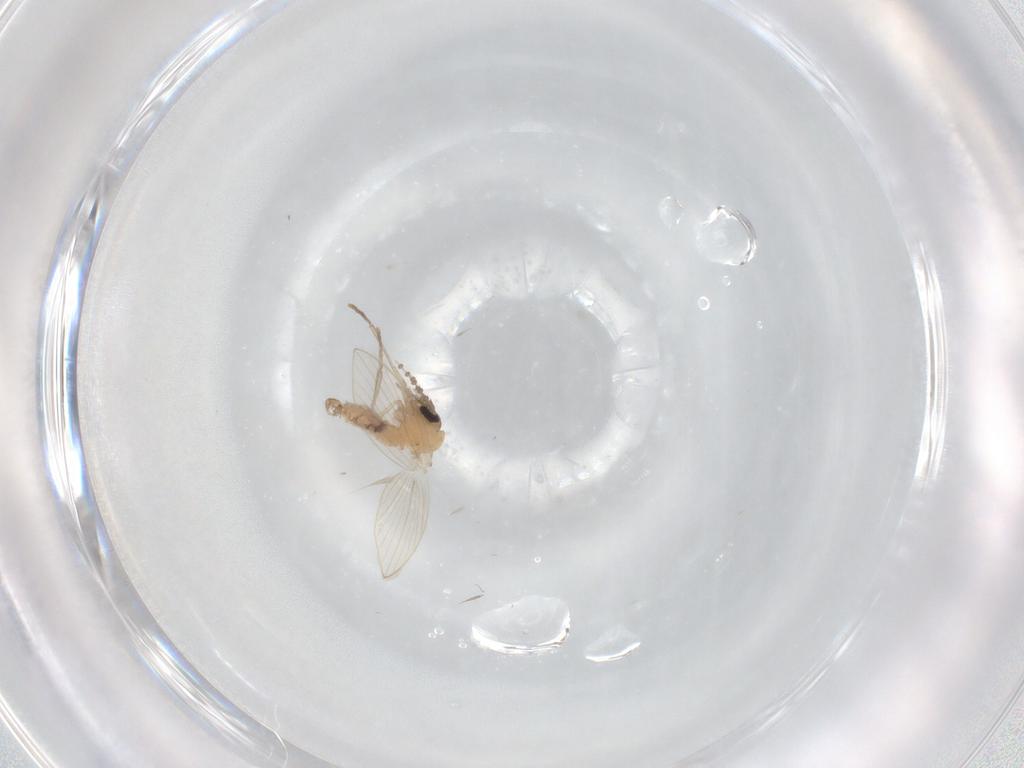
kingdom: Animalia
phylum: Arthropoda
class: Insecta
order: Diptera
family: Psychodidae
